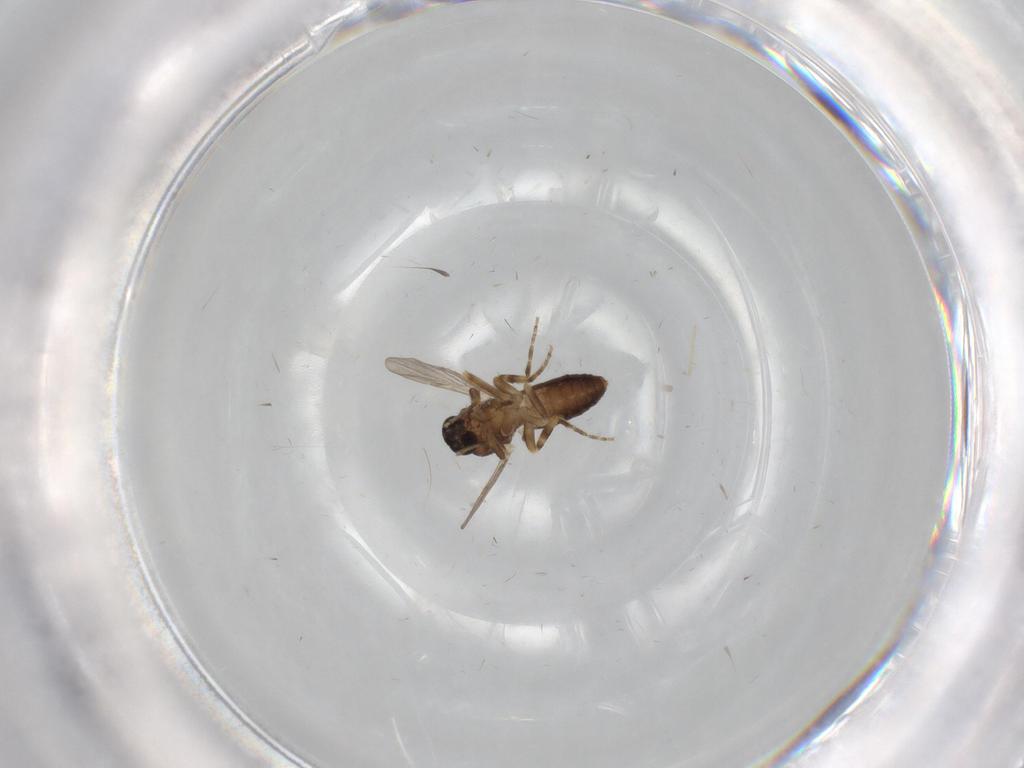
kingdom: Animalia
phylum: Arthropoda
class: Insecta
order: Diptera
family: Ceratopogonidae
